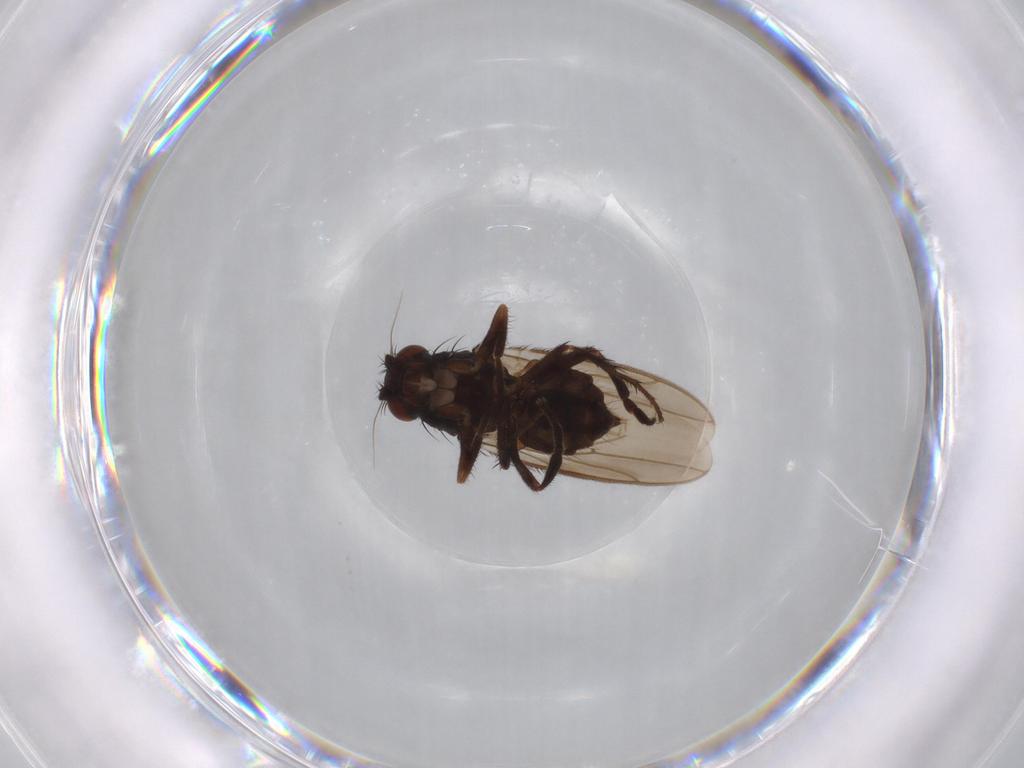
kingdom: Animalia
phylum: Arthropoda
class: Insecta
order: Diptera
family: Sphaeroceridae
